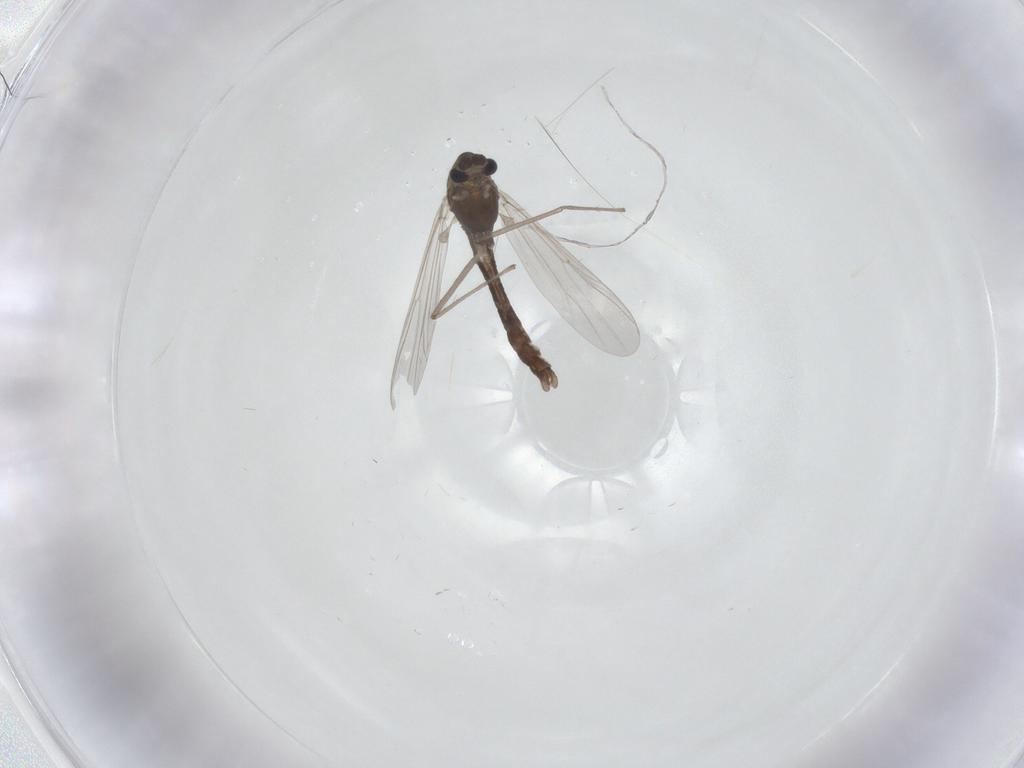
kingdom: Animalia
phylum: Arthropoda
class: Insecta
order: Diptera
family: Chironomidae
